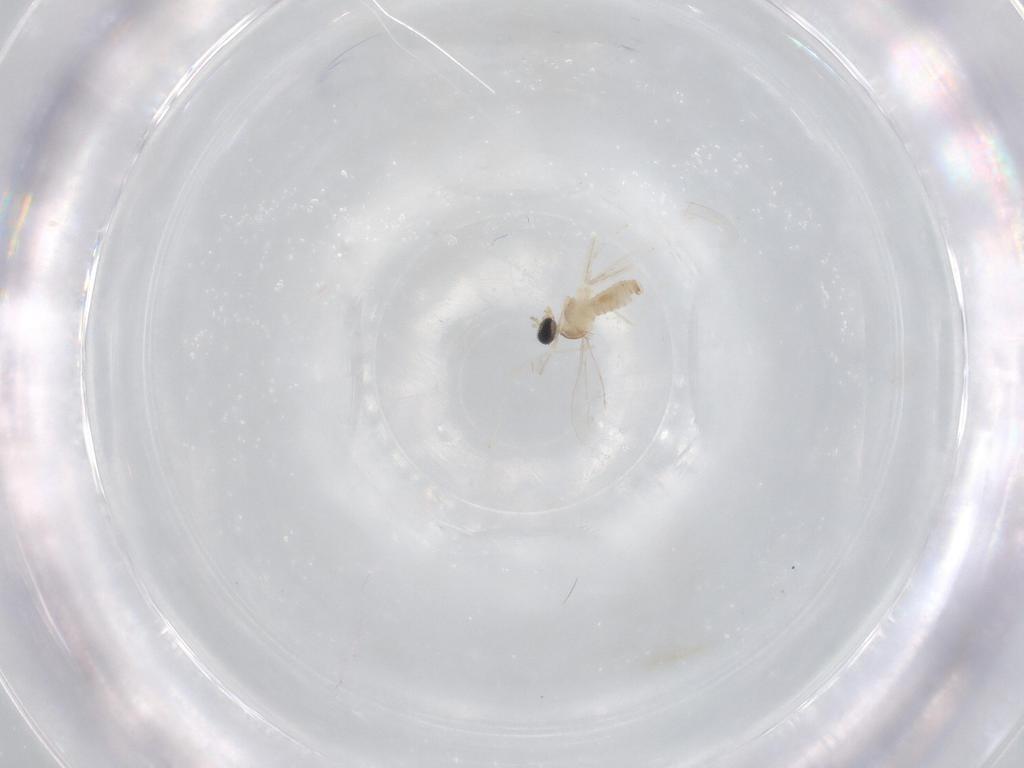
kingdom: Animalia
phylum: Arthropoda
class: Insecta
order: Diptera
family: Cecidomyiidae
